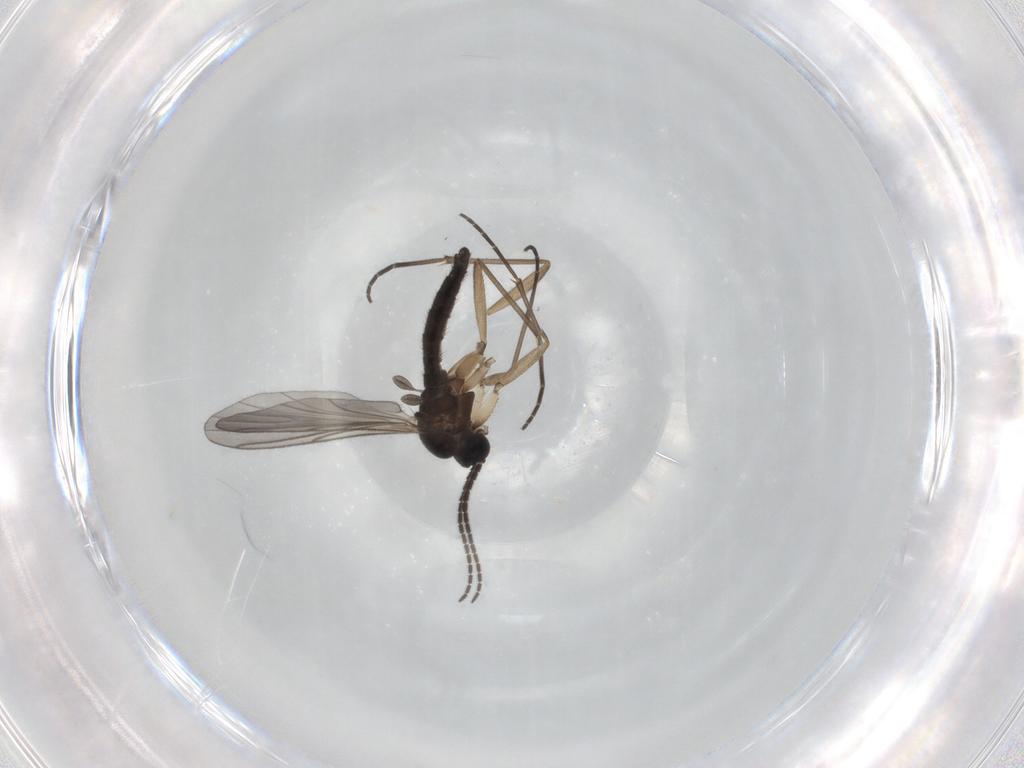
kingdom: Animalia
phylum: Arthropoda
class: Insecta
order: Diptera
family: Sciaridae
